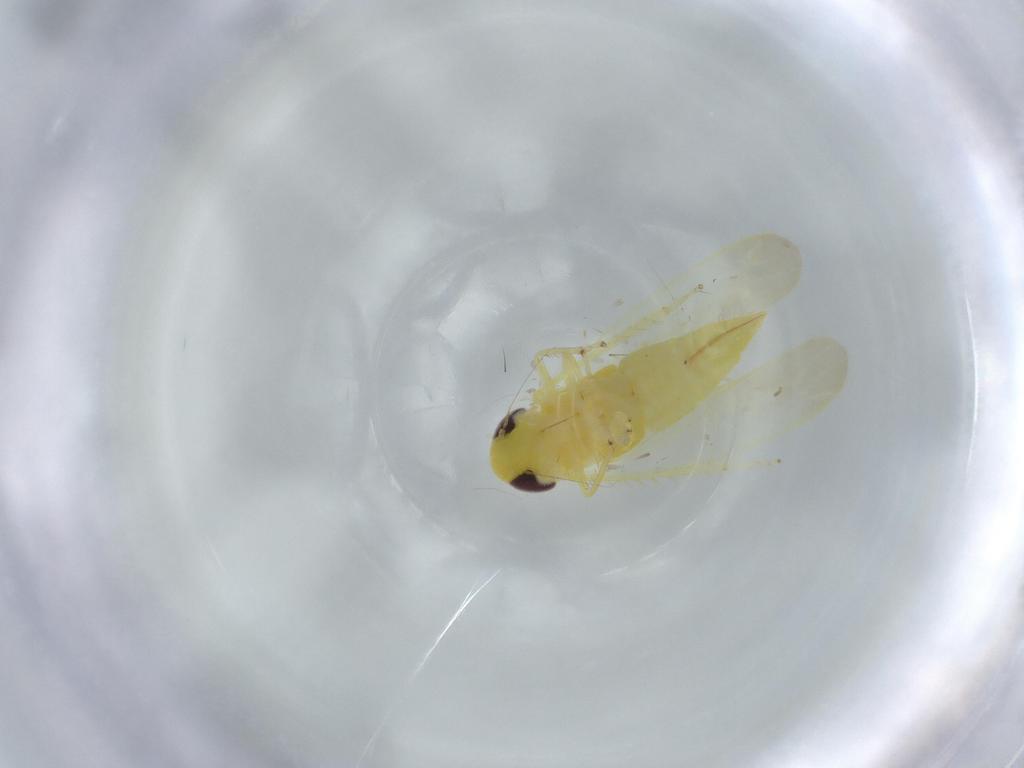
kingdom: Animalia
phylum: Arthropoda
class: Insecta
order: Hemiptera
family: Cicadellidae
